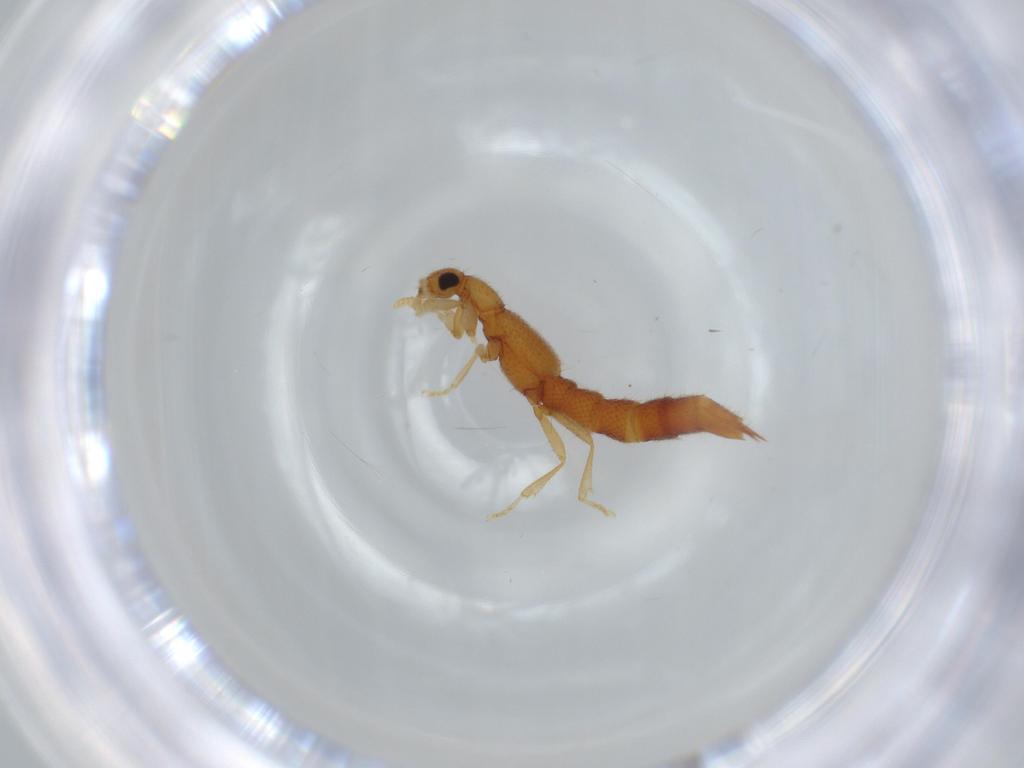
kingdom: Animalia
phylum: Arthropoda
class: Insecta
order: Coleoptera
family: Staphylinidae
